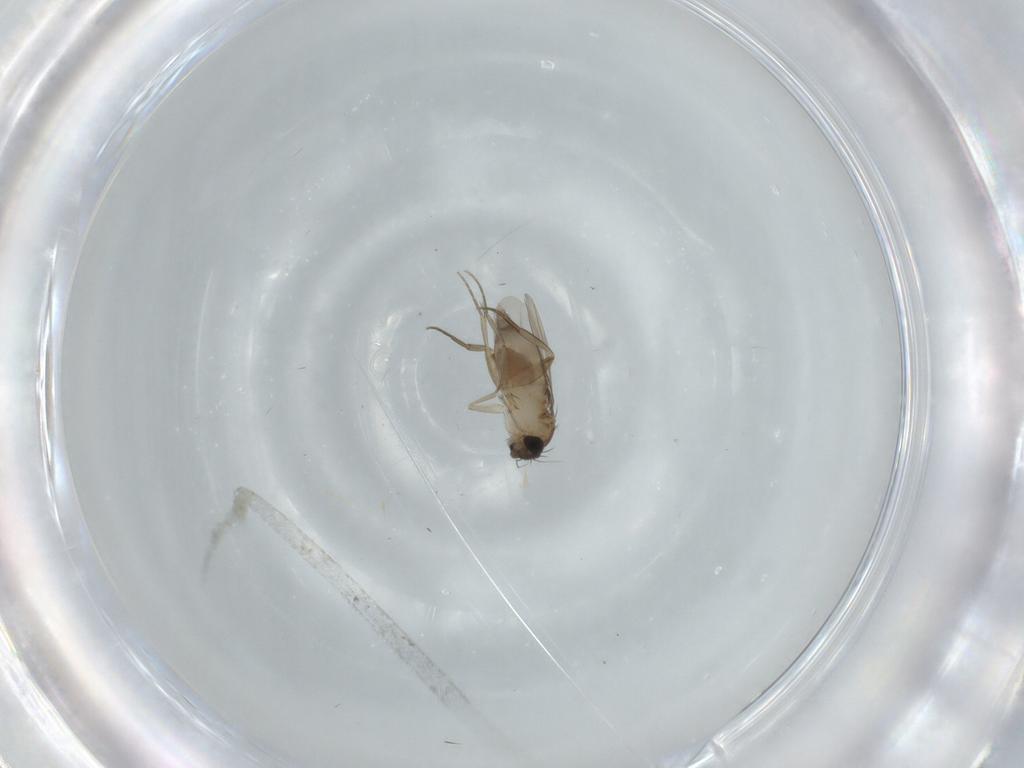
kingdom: Animalia
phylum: Arthropoda
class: Insecta
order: Diptera
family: Phoridae
